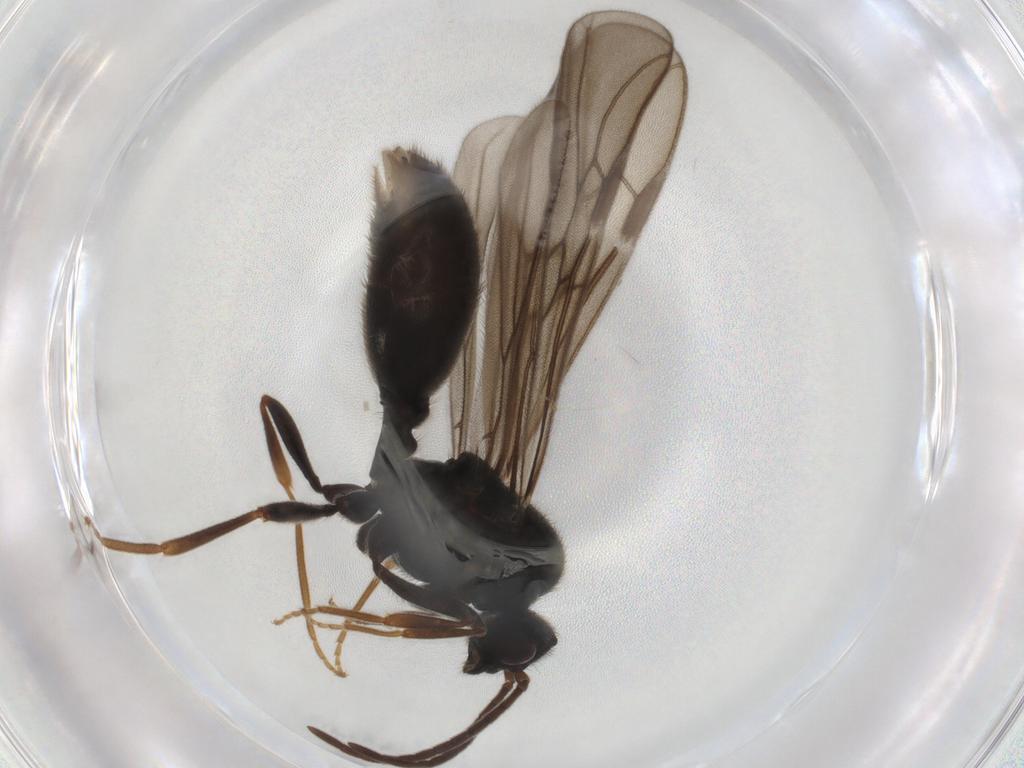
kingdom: Animalia
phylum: Arthropoda
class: Insecta
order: Hymenoptera
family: Formicidae
